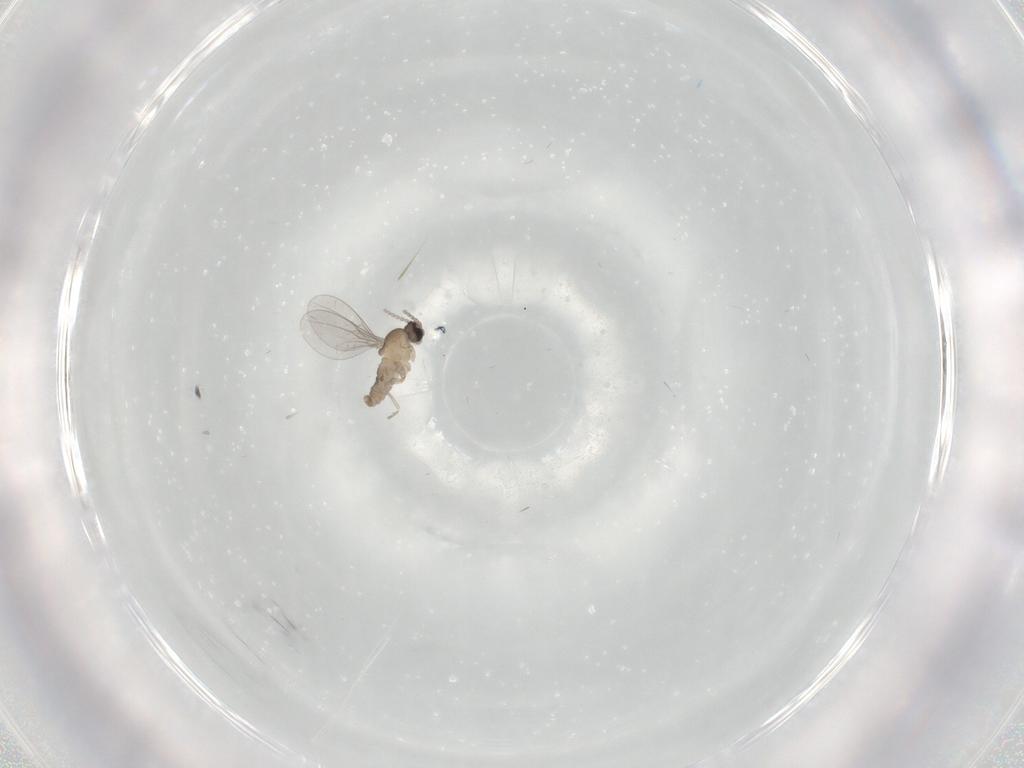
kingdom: Animalia
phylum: Arthropoda
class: Insecta
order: Diptera
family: Cecidomyiidae
